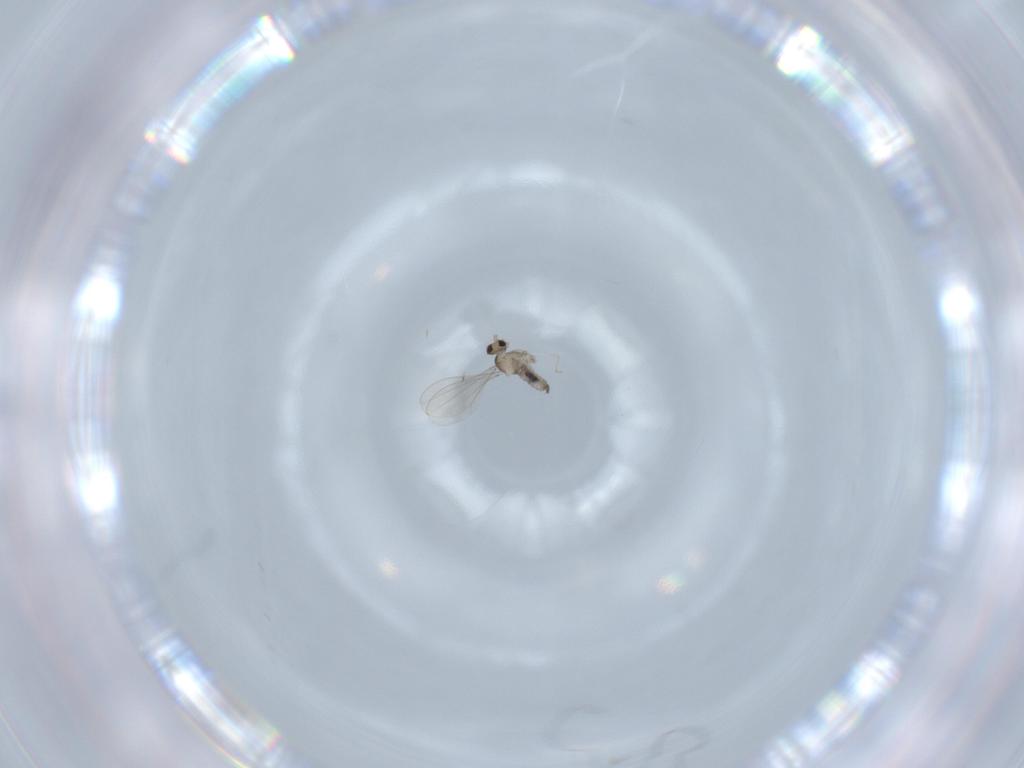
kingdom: Animalia
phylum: Arthropoda
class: Insecta
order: Diptera
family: Cecidomyiidae
